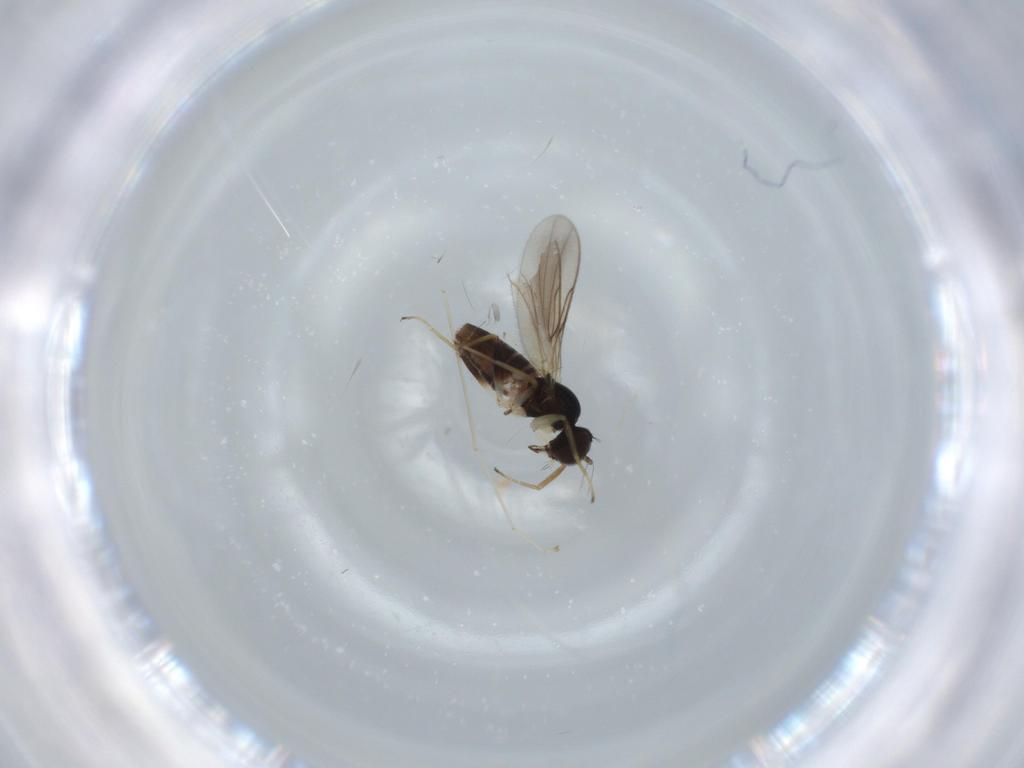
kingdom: Animalia
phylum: Arthropoda
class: Insecta
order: Diptera
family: Hybotidae
